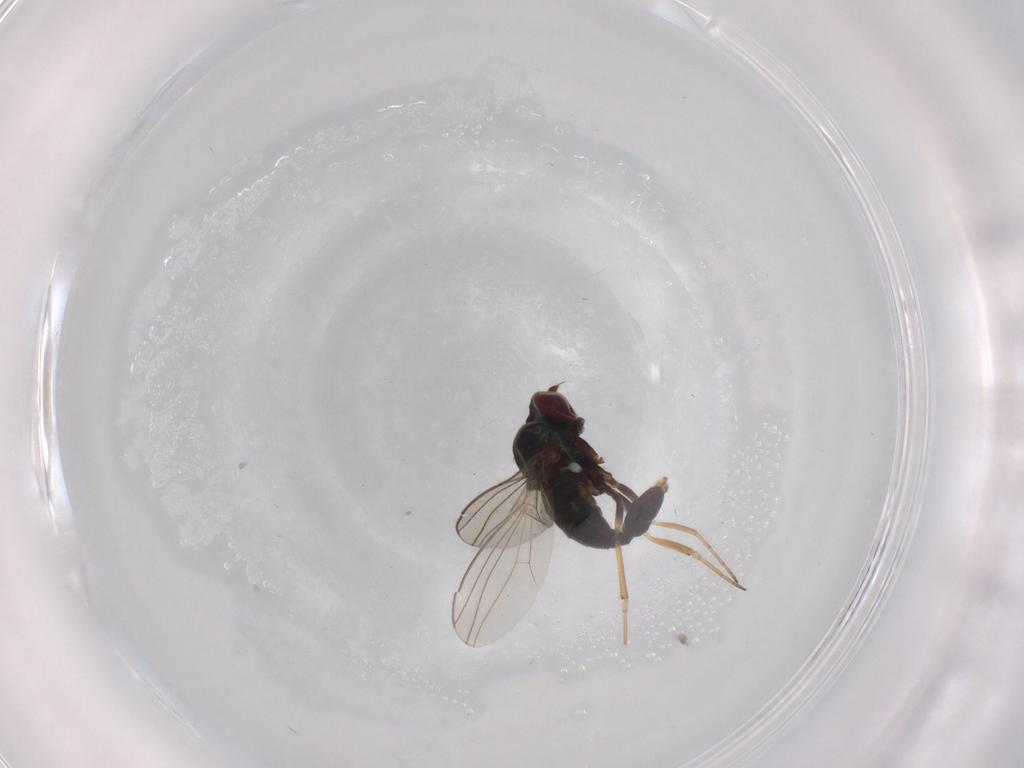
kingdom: Animalia
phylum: Arthropoda
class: Insecta
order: Diptera
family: Dolichopodidae
